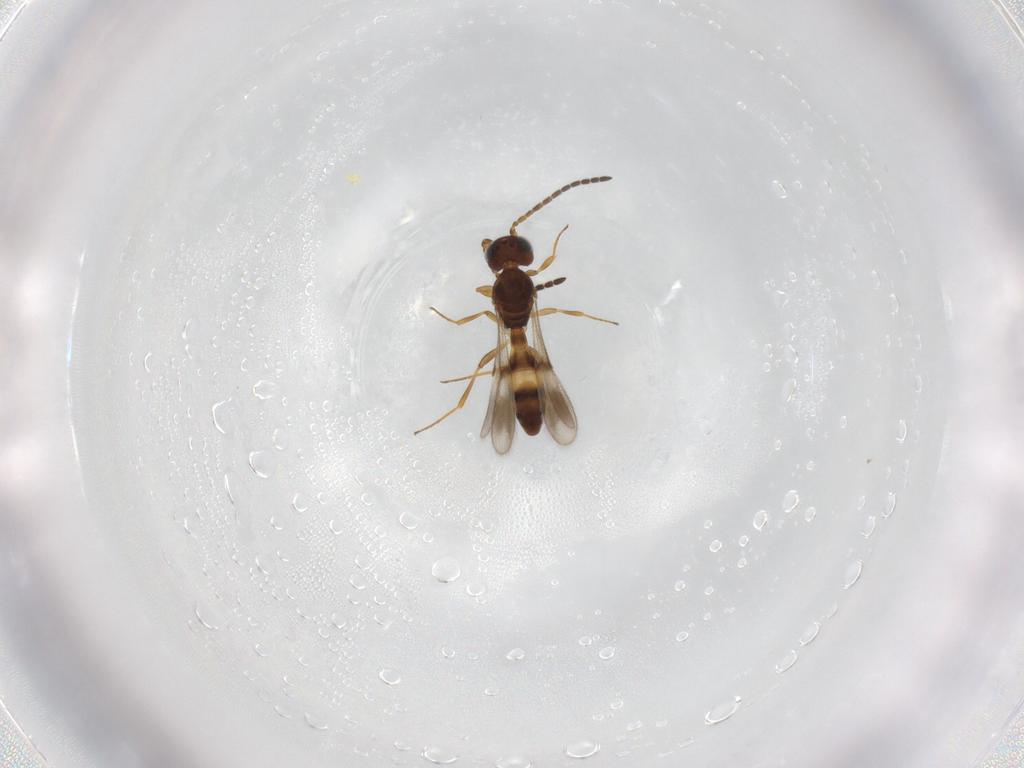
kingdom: Animalia
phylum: Arthropoda
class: Insecta
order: Hymenoptera
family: Scelionidae
